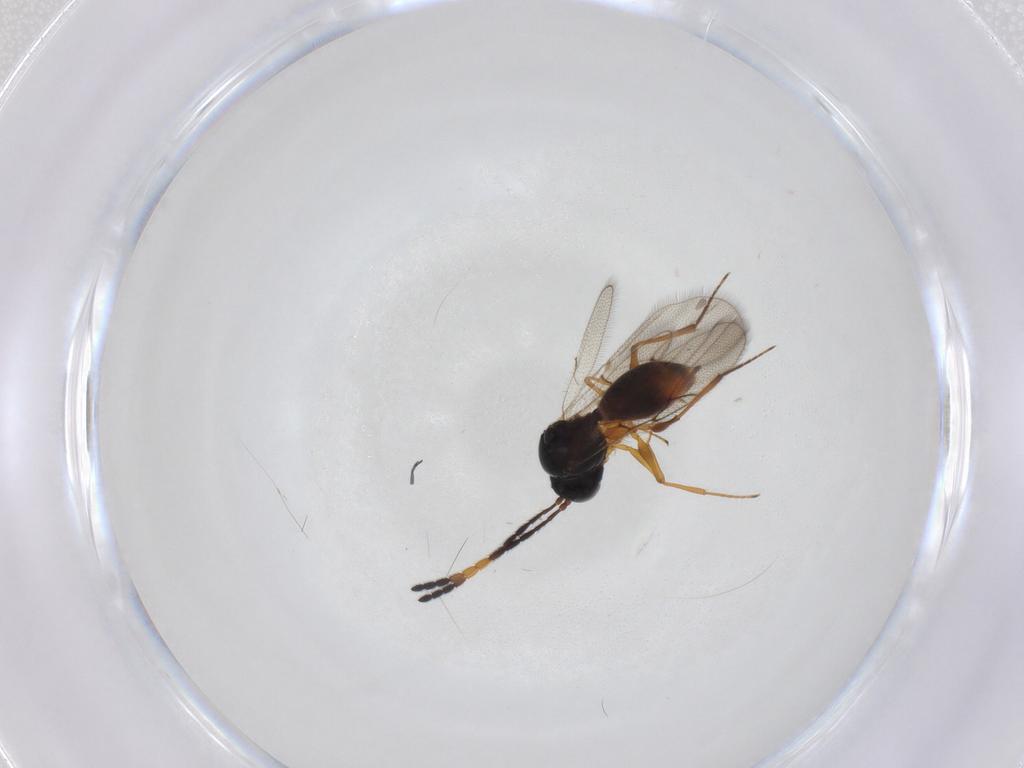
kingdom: Animalia
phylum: Arthropoda
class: Insecta
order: Hymenoptera
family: Figitidae
